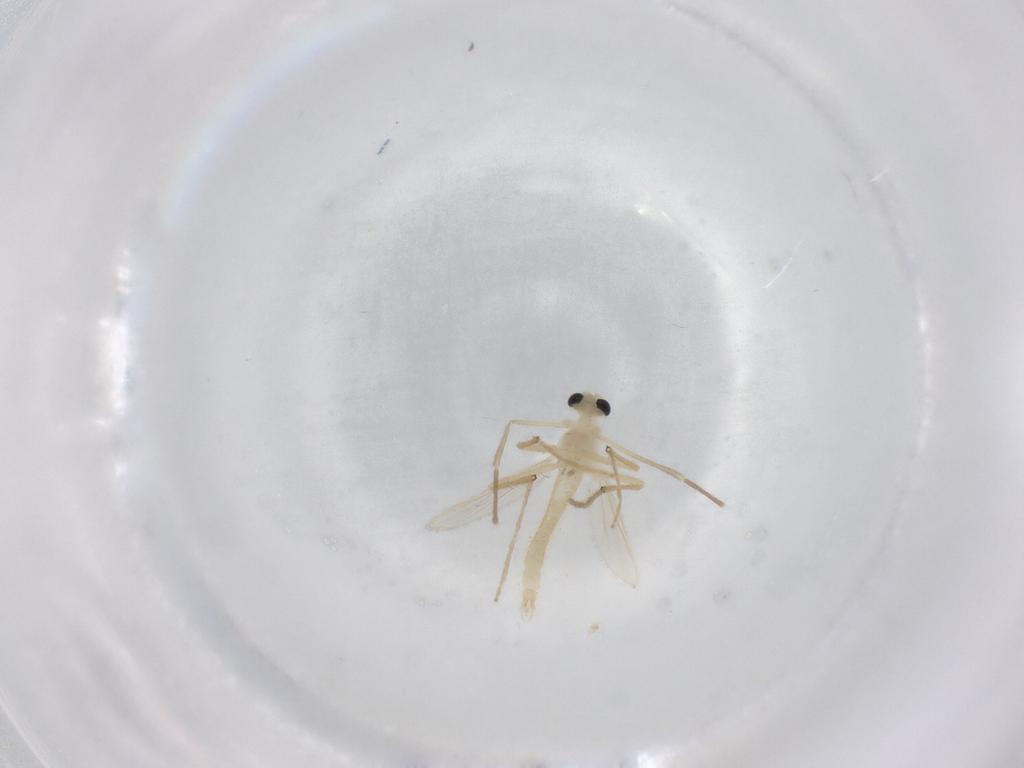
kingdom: Animalia
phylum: Arthropoda
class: Insecta
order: Diptera
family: Chironomidae
